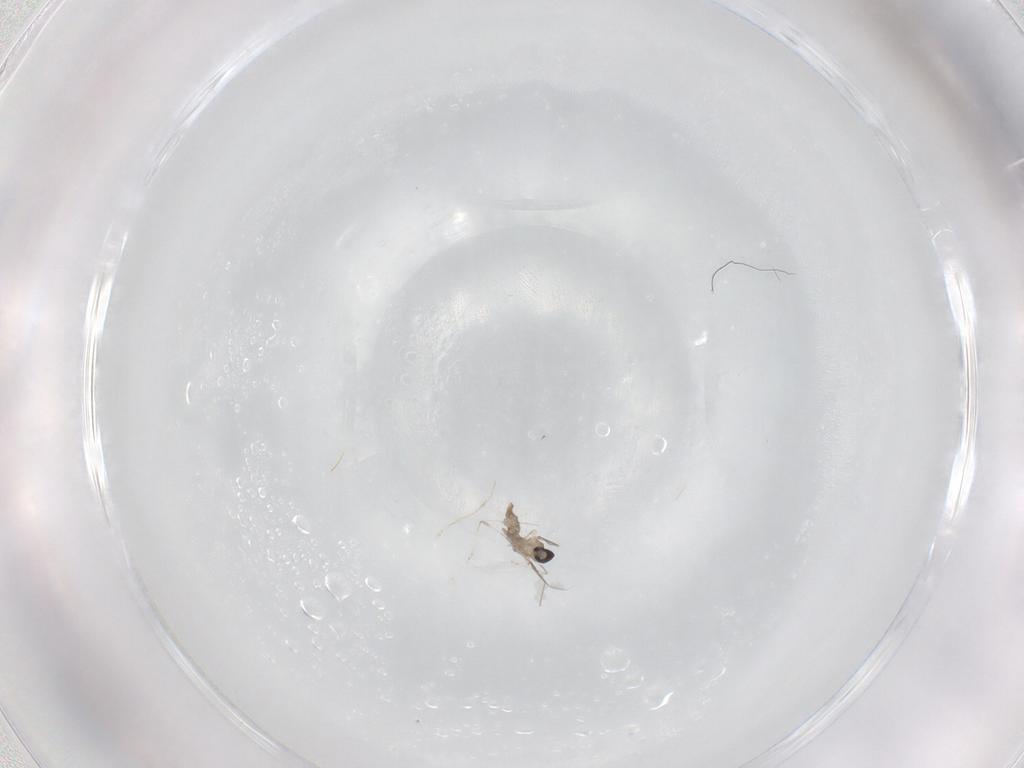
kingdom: Animalia
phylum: Arthropoda
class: Insecta
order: Diptera
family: Cecidomyiidae
